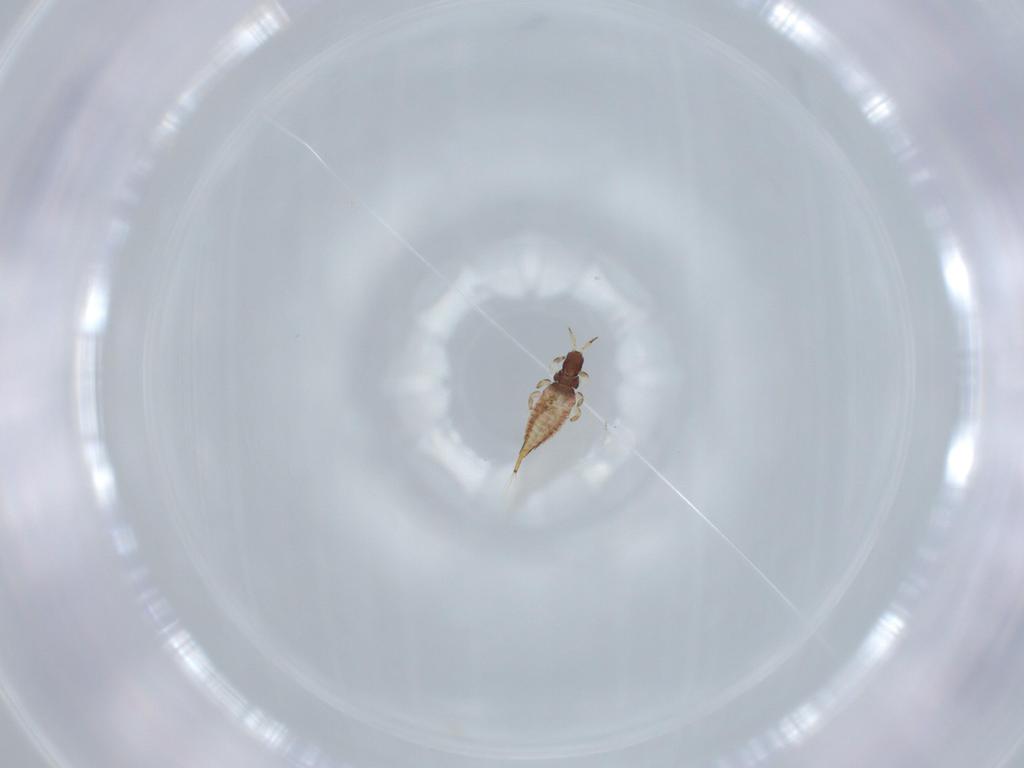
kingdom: Animalia
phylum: Arthropoda
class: Insecta
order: Thysanoptera
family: Phlaeothripidae
